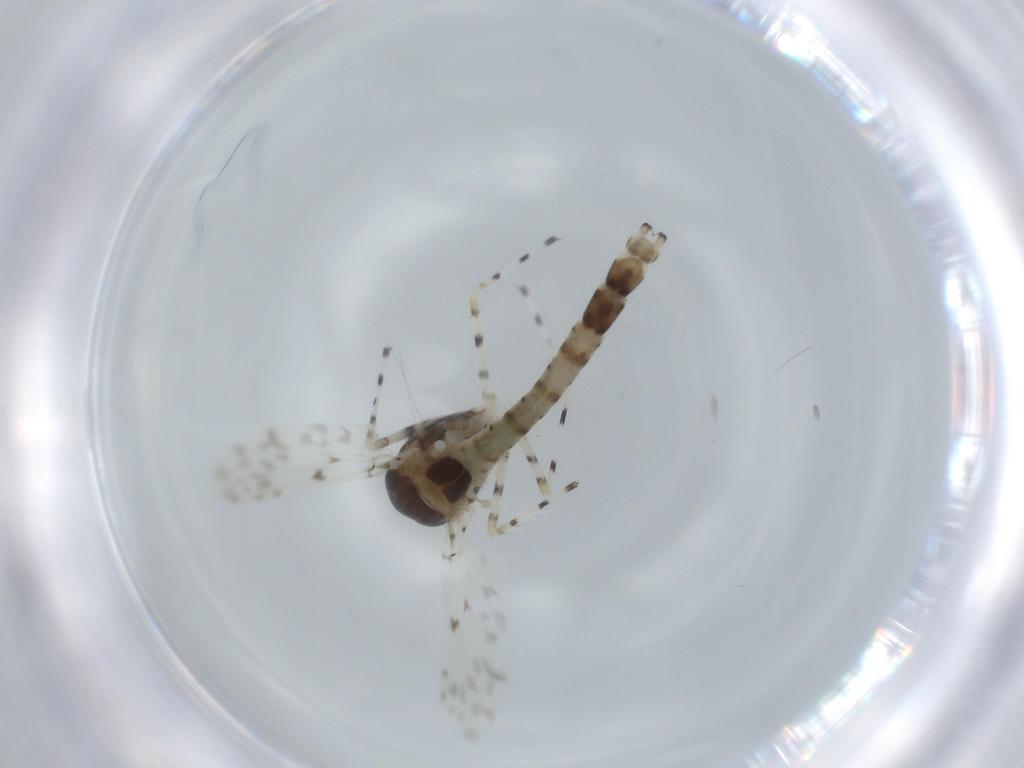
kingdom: Animalia
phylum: Arthropoda
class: Insecta
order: Diptera
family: Chironomidae
